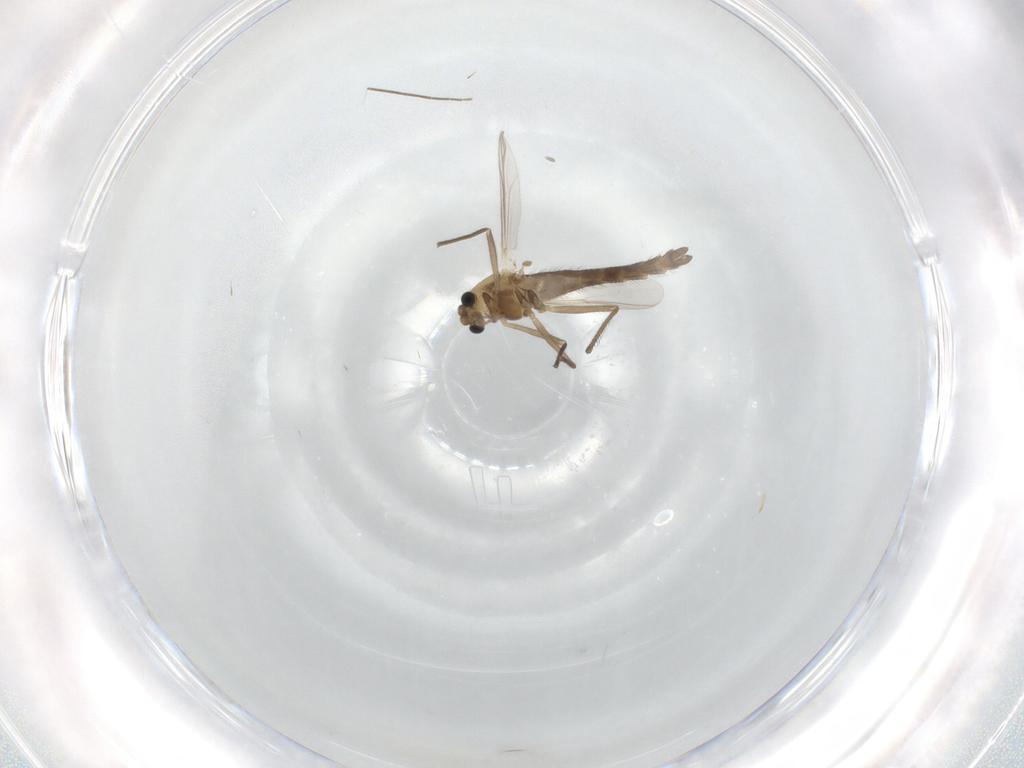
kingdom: Animalia
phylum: Arthropoda
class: Insecta
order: Diptera
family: Chironomidae
